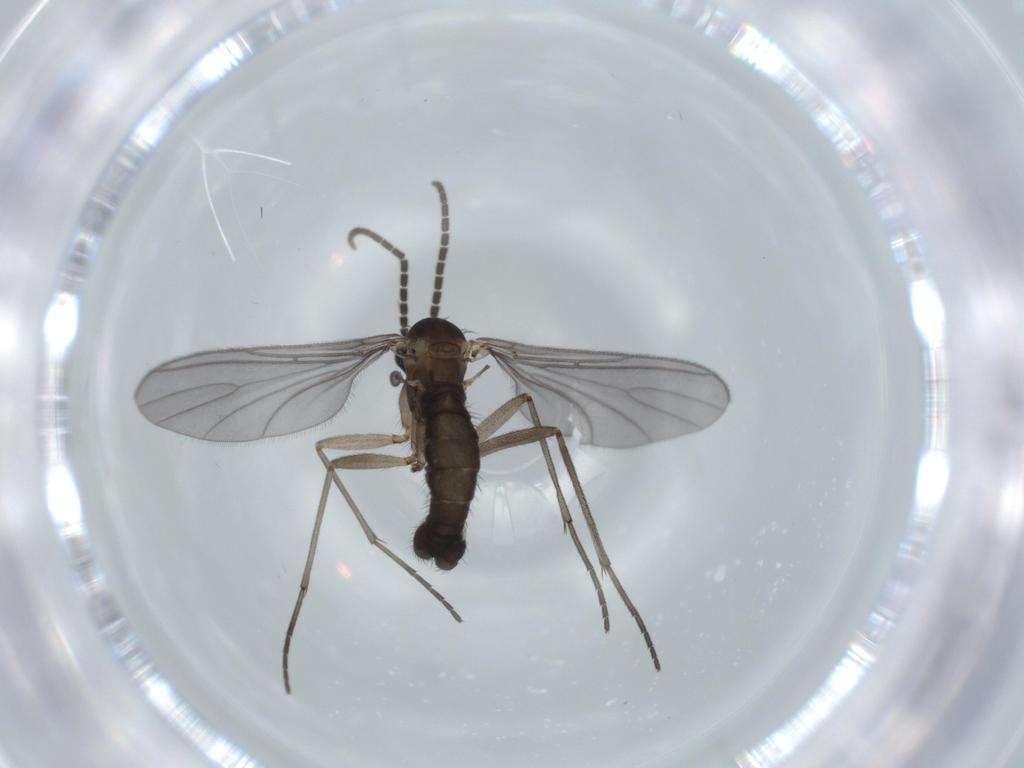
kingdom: Animalia
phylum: Arthropoda
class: Insecta
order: Diptera
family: Sciaridae
